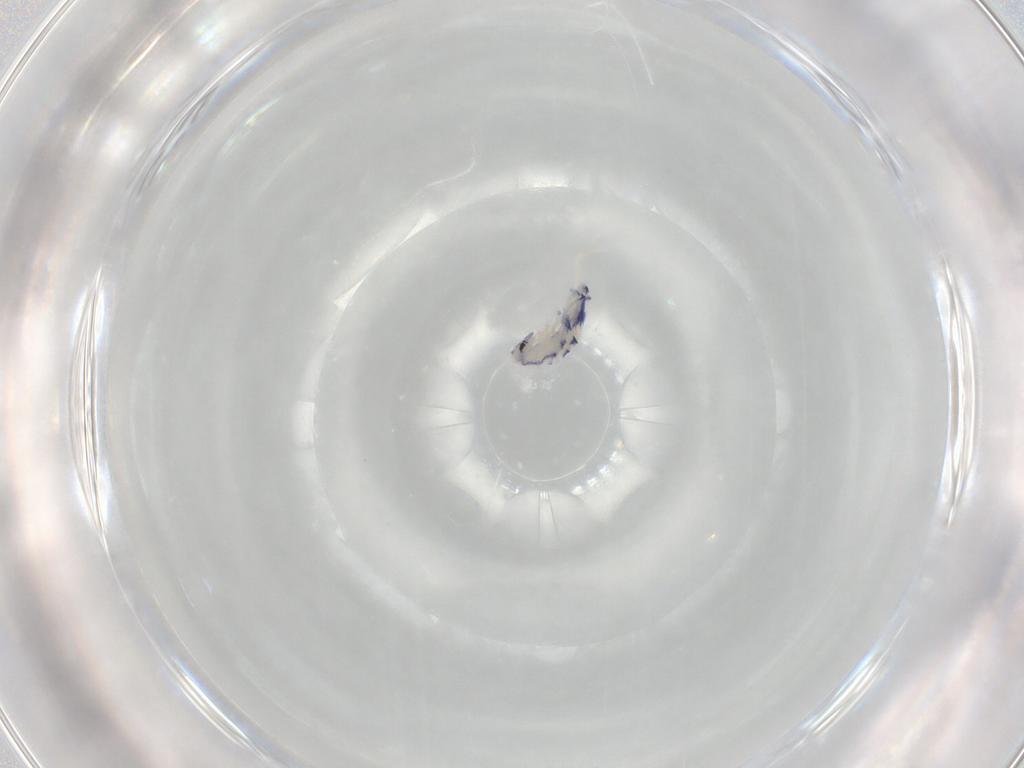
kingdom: Animalia
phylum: Arthropoda
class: Collembola
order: Entomobryomorpha
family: Entomobryidae
